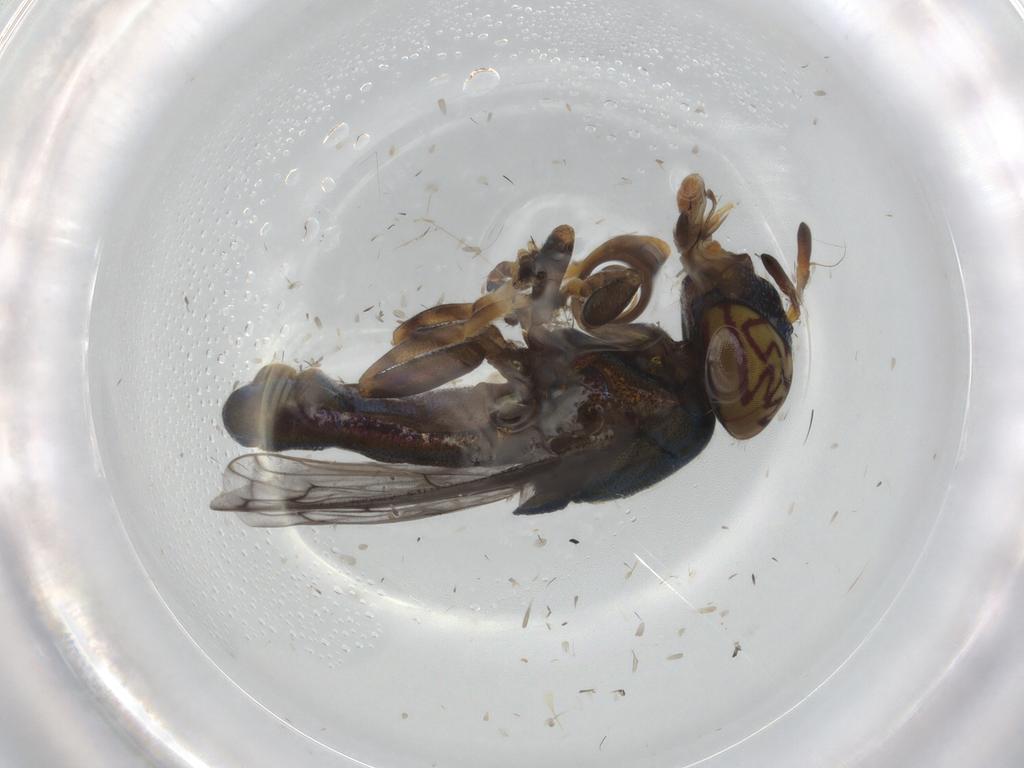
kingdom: Animalia
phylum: Arthropoda
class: Insecta
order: Diptera
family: Syrphidae
